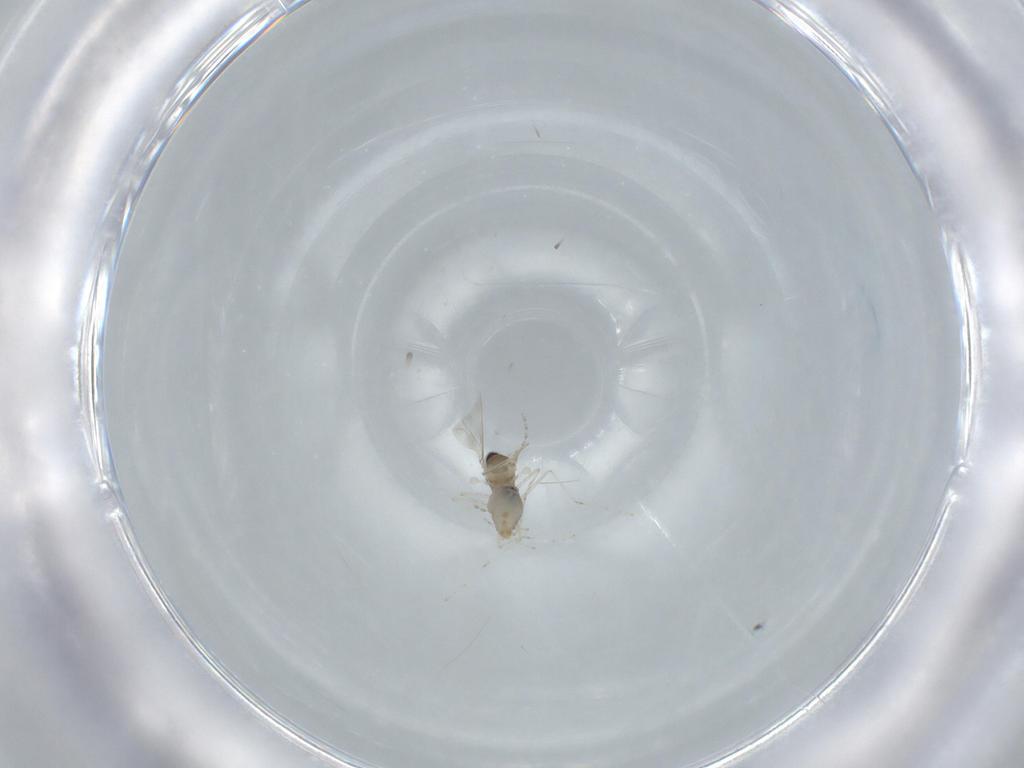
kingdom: Animalia
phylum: Arthropoda
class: Insecta
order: Diptera
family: Cecidomyiidae
